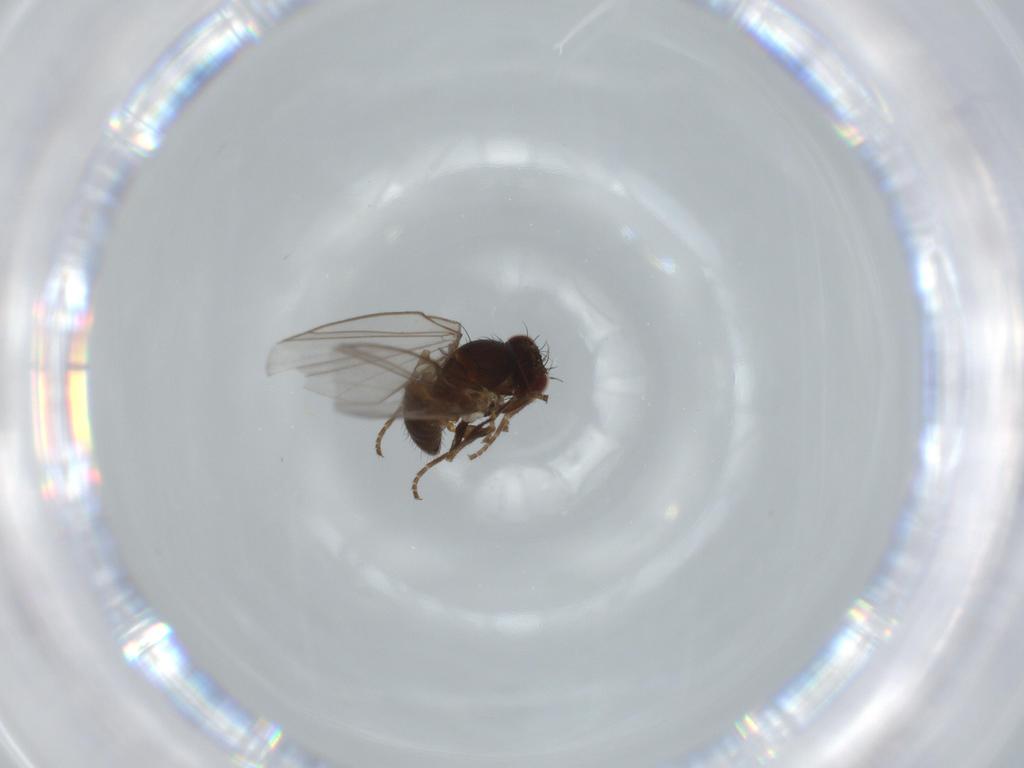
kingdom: Animalia
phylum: Arthropoda
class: Insecta
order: Diptera
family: Agromyzidae
